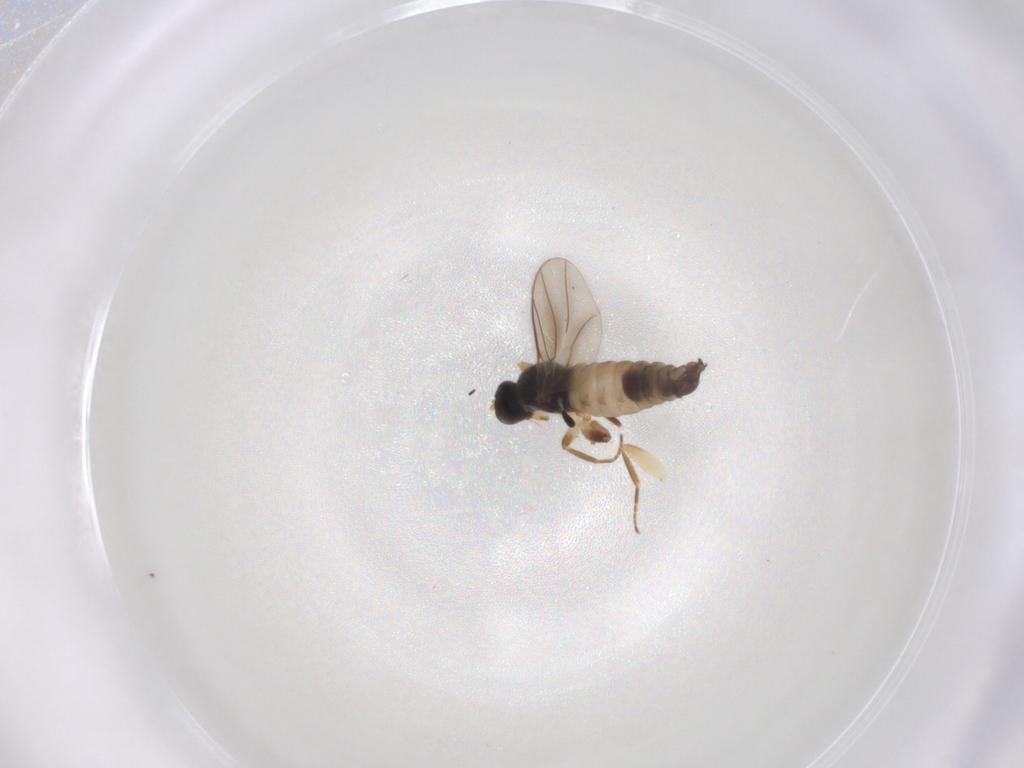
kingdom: Animalia
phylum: Arthropoda
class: Insecta
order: Diptera
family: Hybotidae
